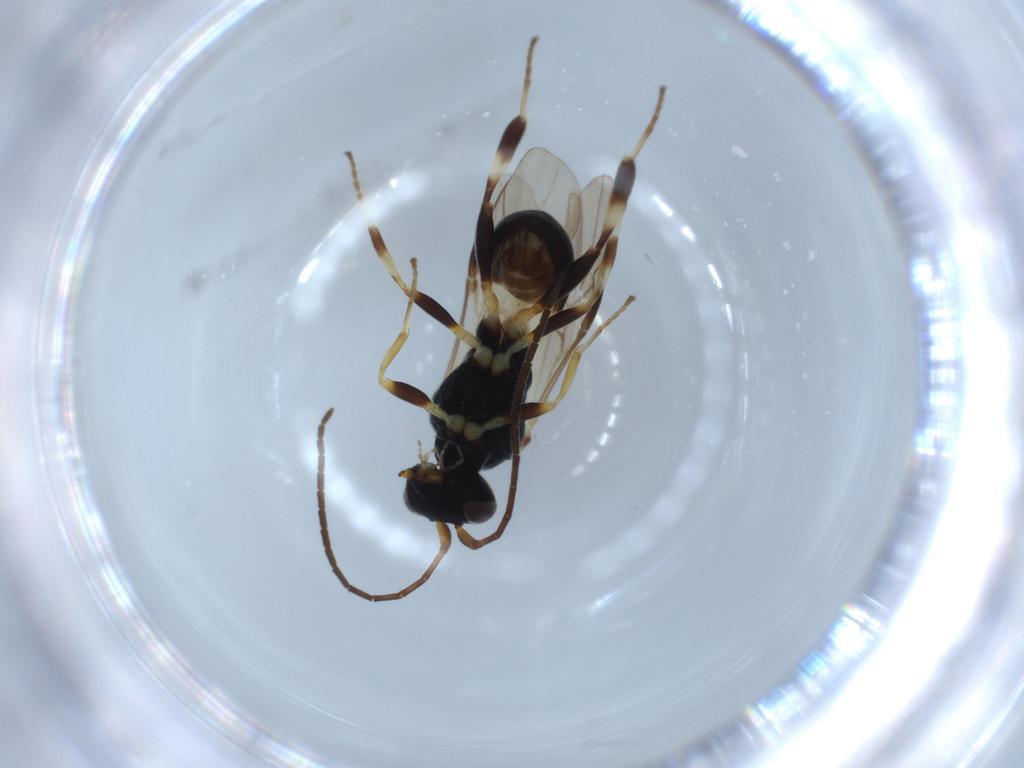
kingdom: Animalia
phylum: Arthropoda
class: Insecta
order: Hymenoptera
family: Braconidae
